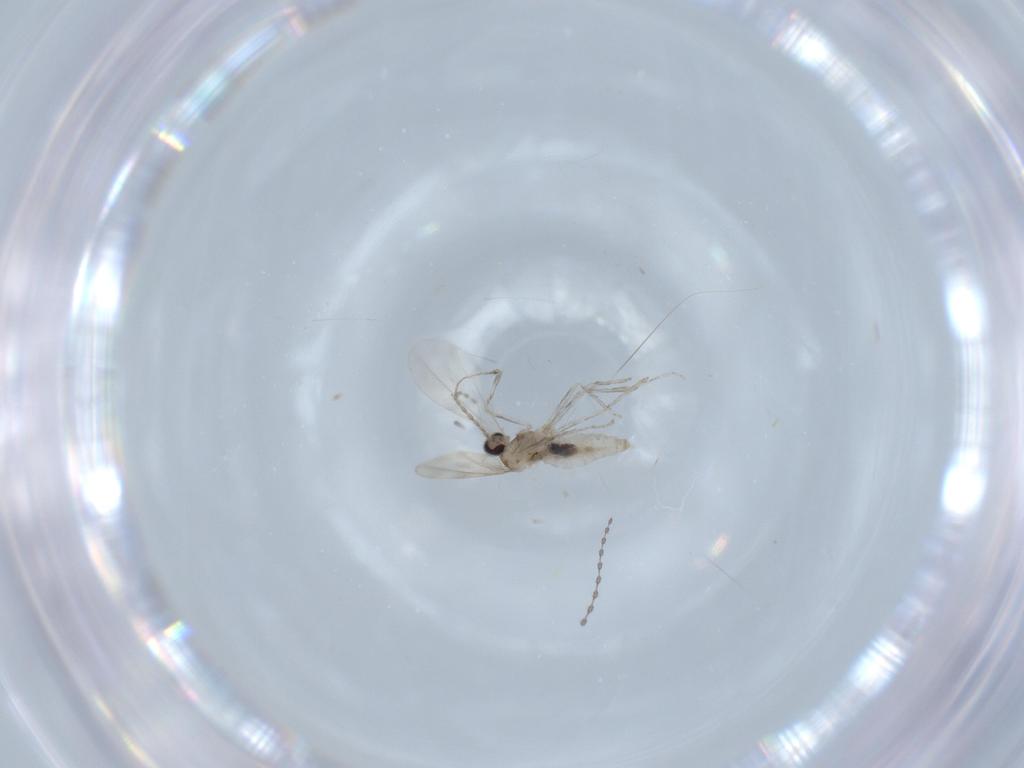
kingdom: Animalia
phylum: Arthropoda
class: Insecta
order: Diptera
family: Cecidomyiidae
